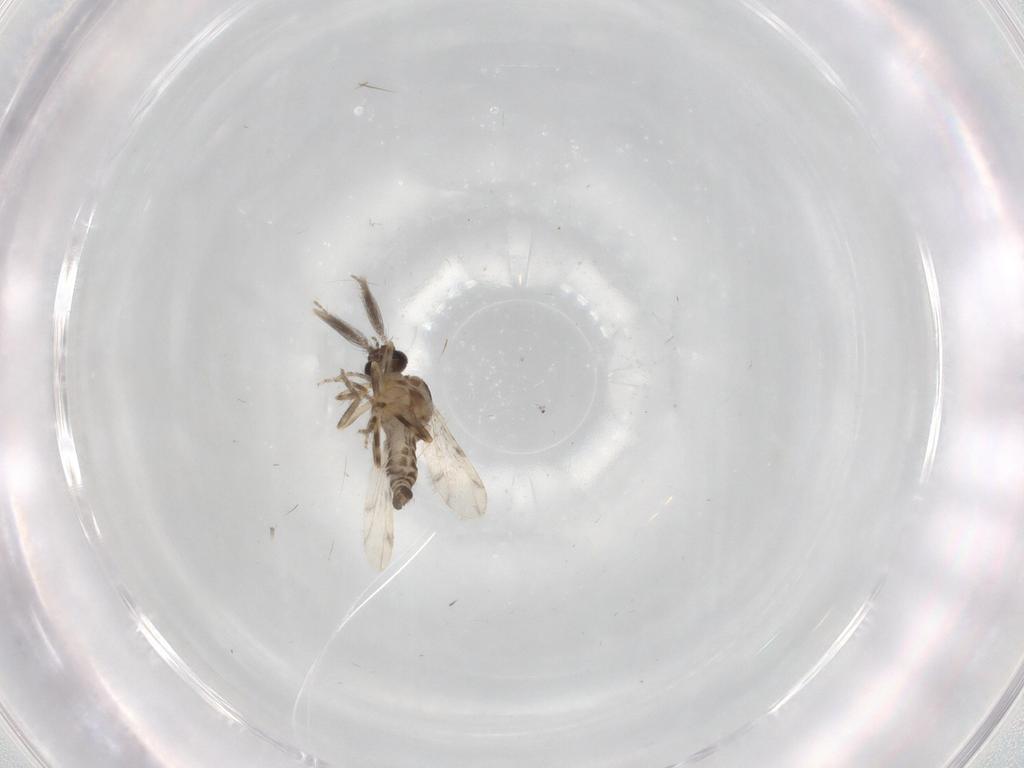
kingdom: Animalia
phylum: Arthropoda
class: Insecta
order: Diptera
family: Ceratopogonidae
